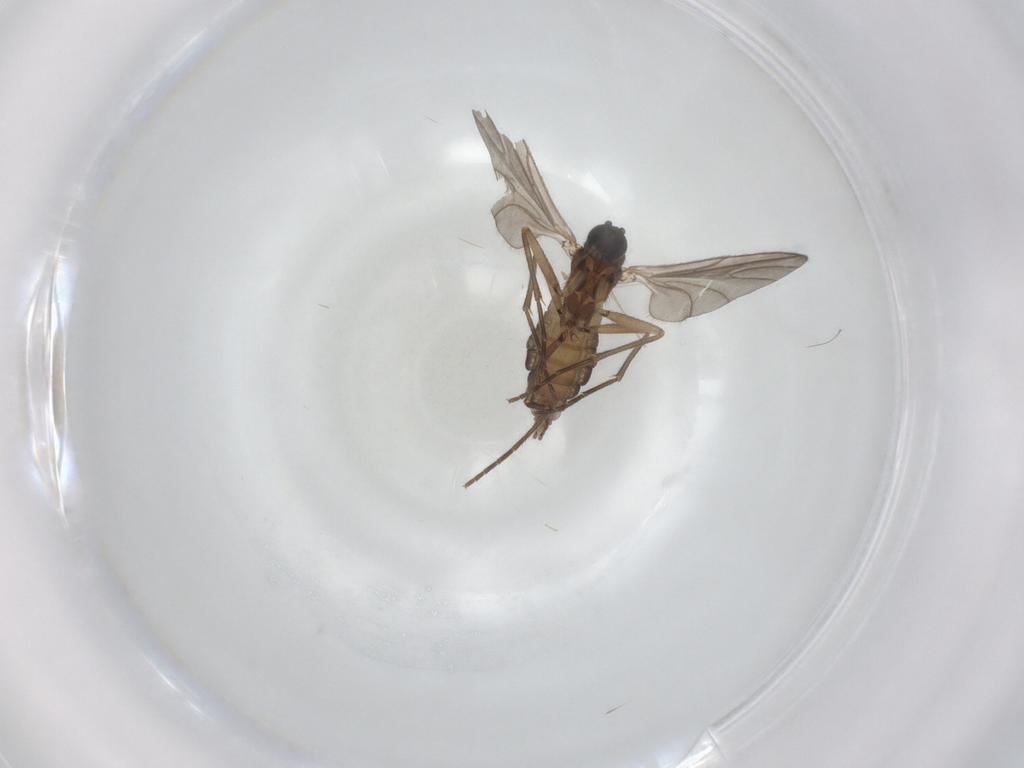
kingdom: Animalia
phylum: Arthropoda
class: Insecta
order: Diptera
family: Sciaridae
